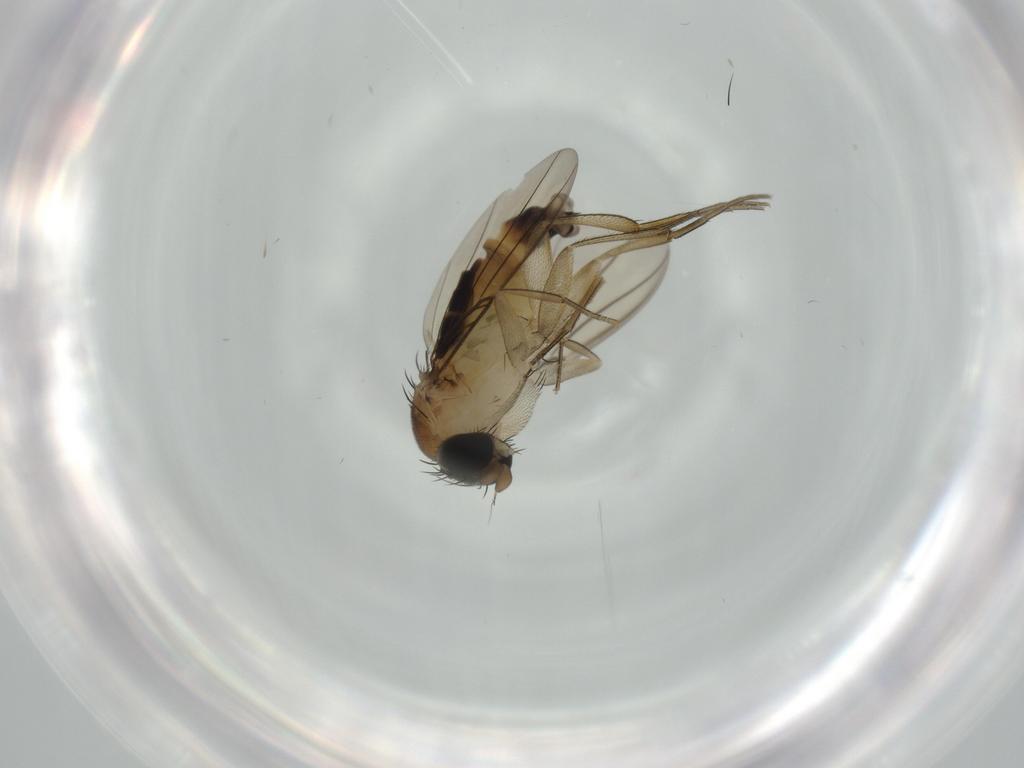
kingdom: Animalia
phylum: Arthropoda
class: Insecta
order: Diptera
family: Phoridae
